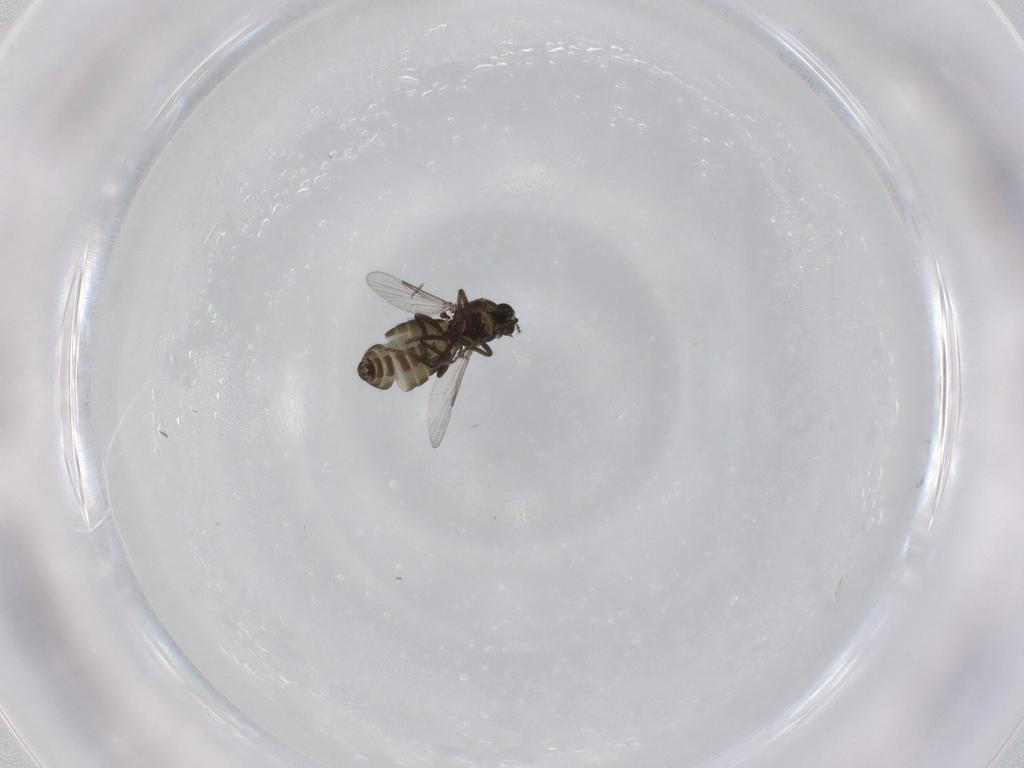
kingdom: Animalia
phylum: Arthropoda
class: Insecta
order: Diptera
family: Ceratopogonidae
